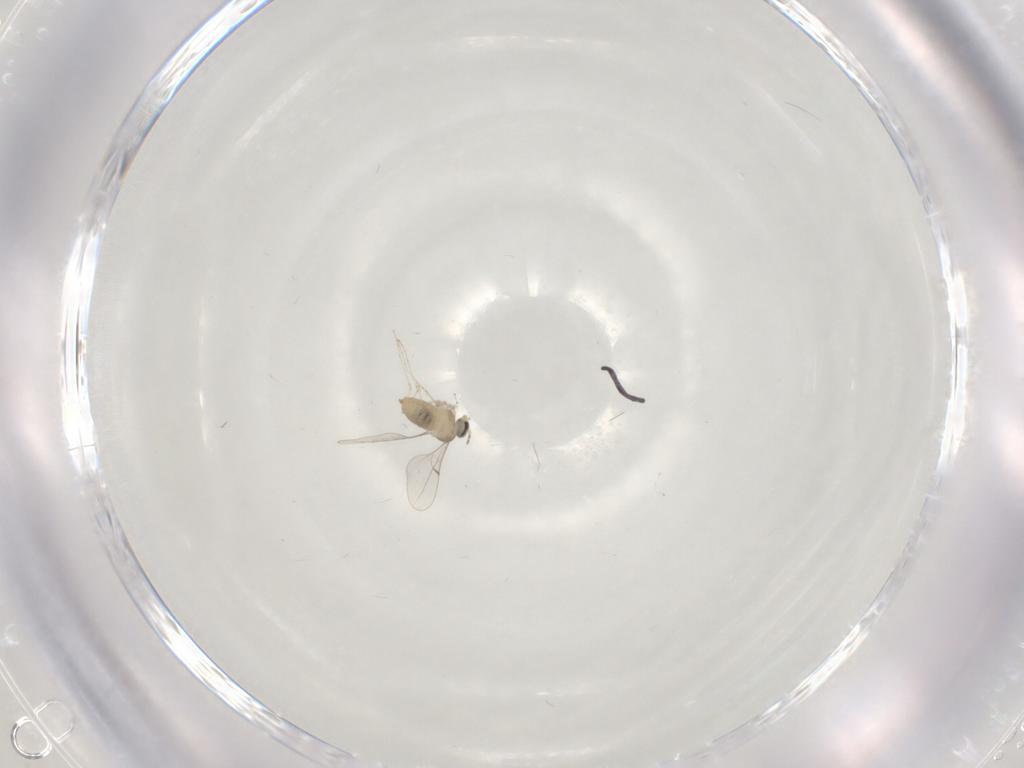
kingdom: Animalia
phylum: Arthropoda
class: Insecta
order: Diptera
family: Cecidomyiidae
